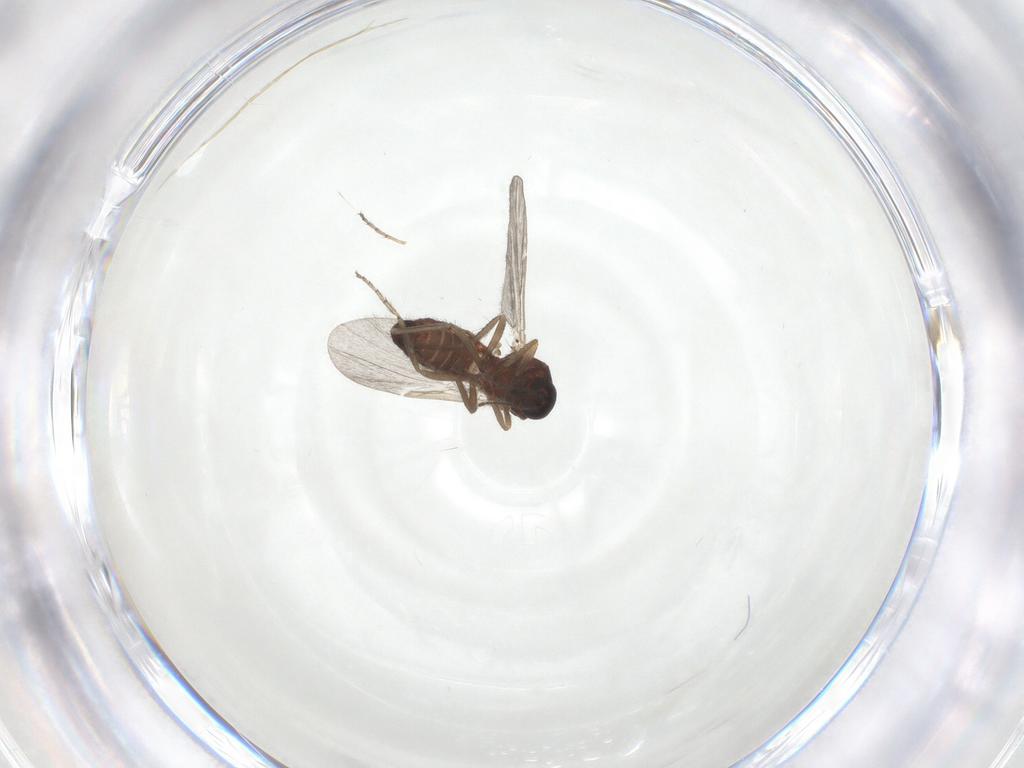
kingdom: Animalia
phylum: Arthropoda
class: Insecta
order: Diptera
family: Ceratopogonidae
